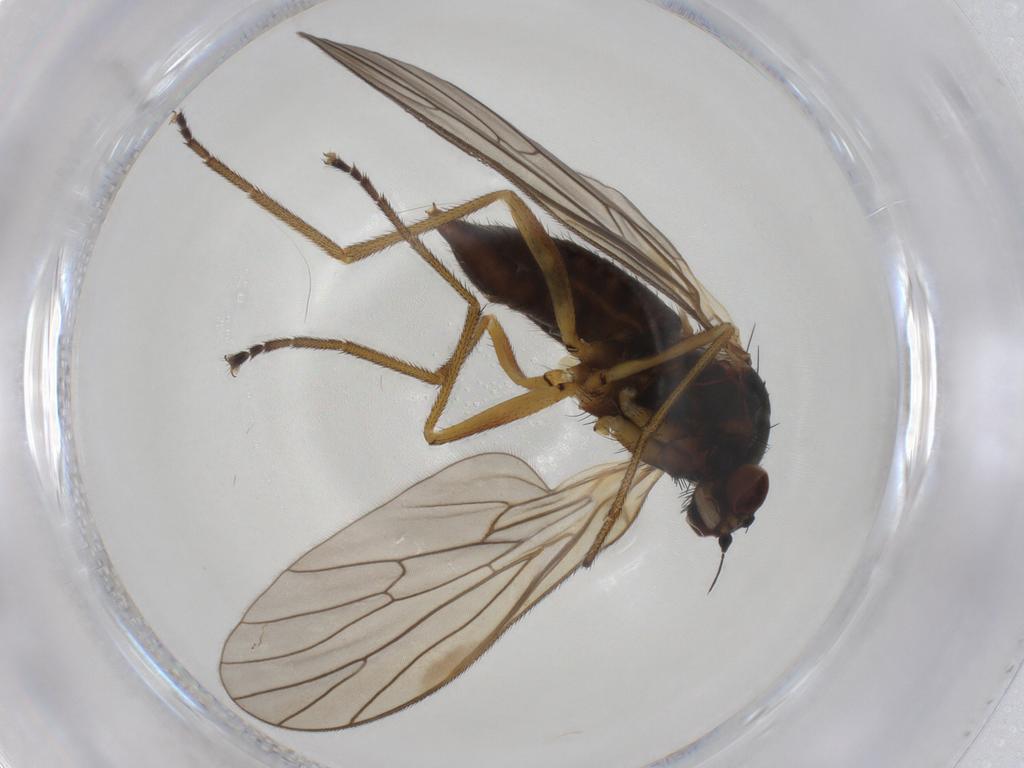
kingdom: Animalia
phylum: Arthropoda
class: Insecta
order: Diptera
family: Brachystomatidae
